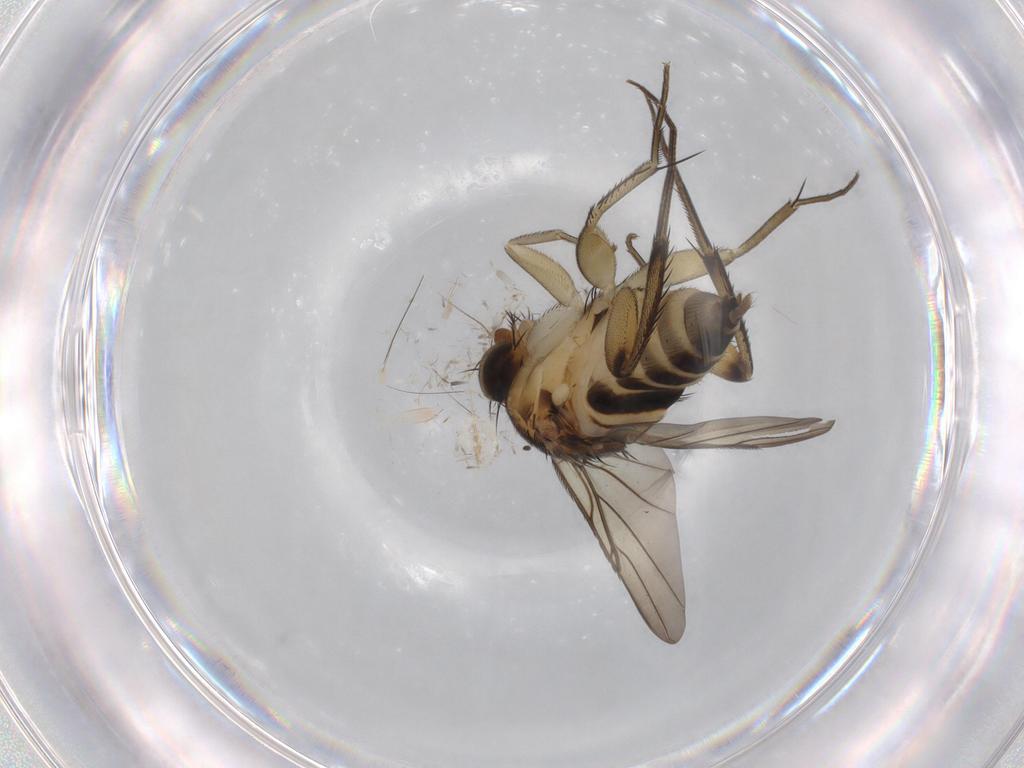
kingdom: Animalia
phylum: Arthropoda
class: Insecta
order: Diptera
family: Phoridae
